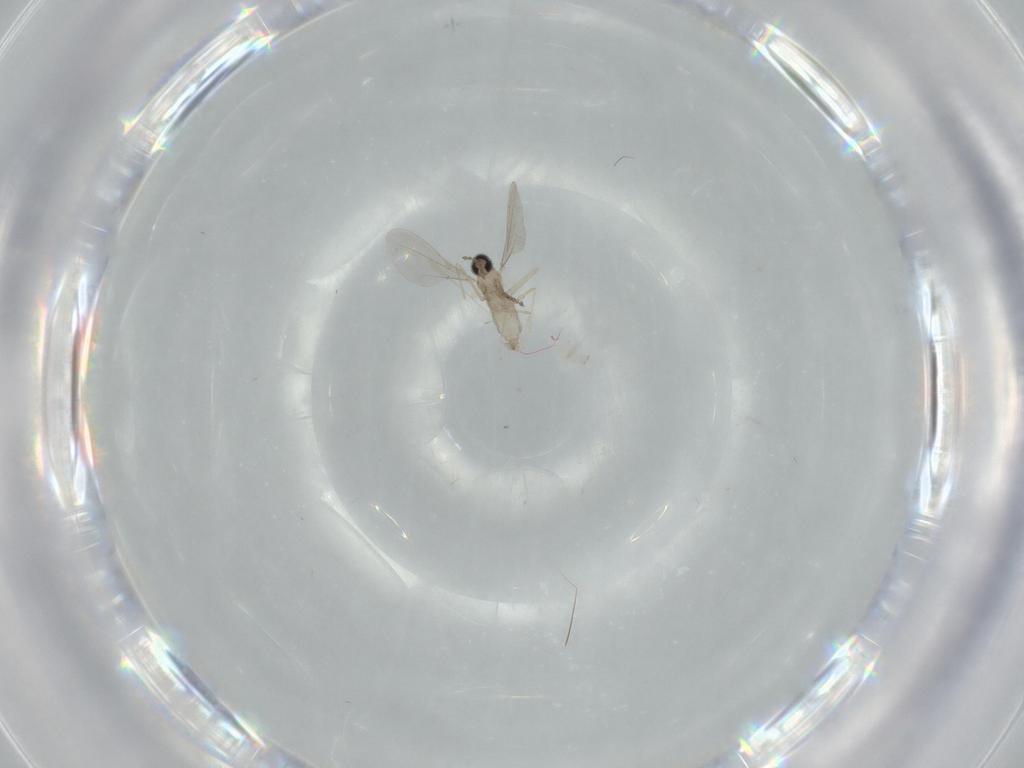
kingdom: Animalia
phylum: Arthropoda
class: Insecta
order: Diptera
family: Cecidomyiidae
